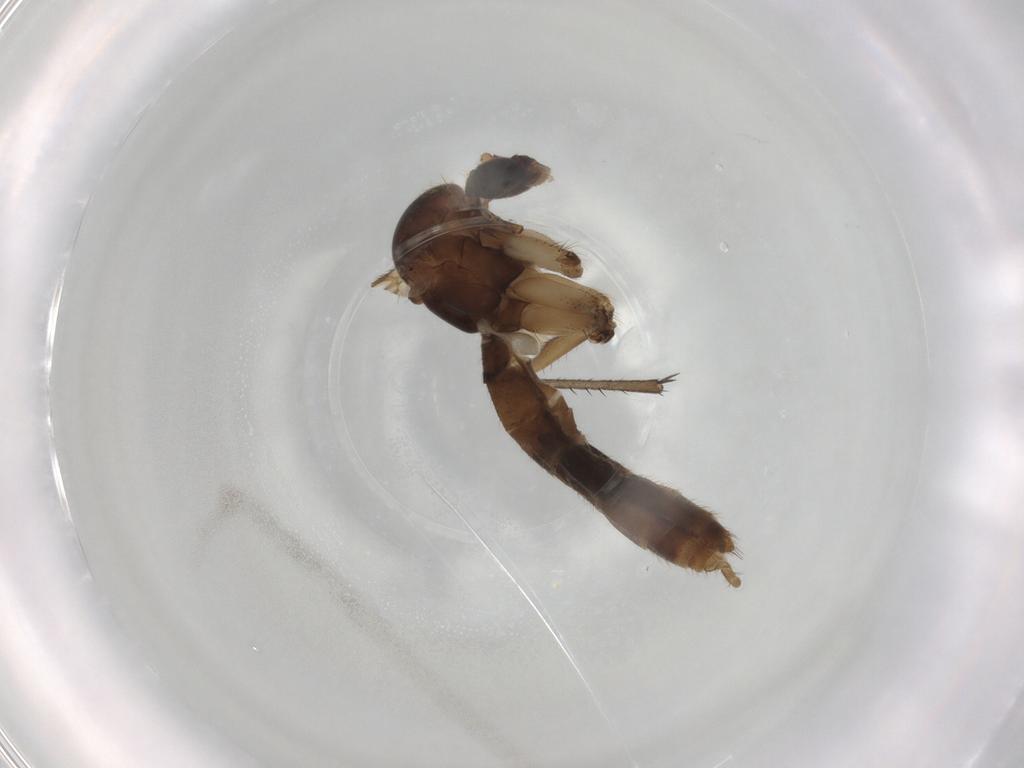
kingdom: Animalia
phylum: Arthropoda
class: Insecta
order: Diptera
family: Mycetophilidae
